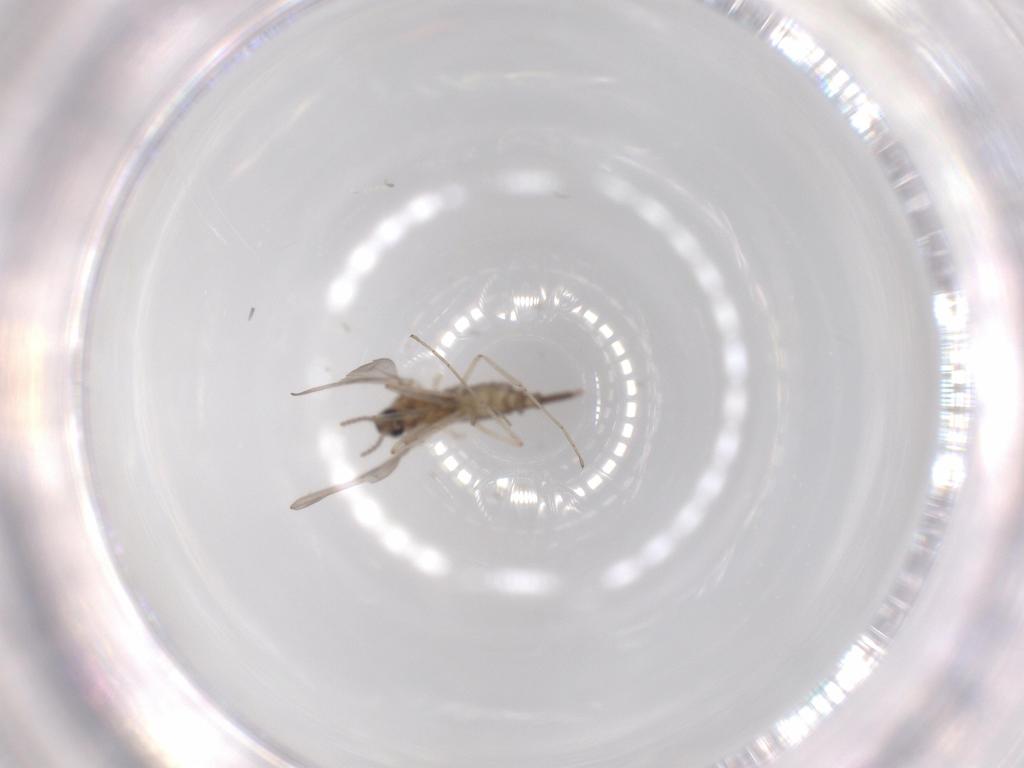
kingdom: Animalia
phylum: Arthropoda
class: Insecta
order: Diptera
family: Cecidomyiidae
